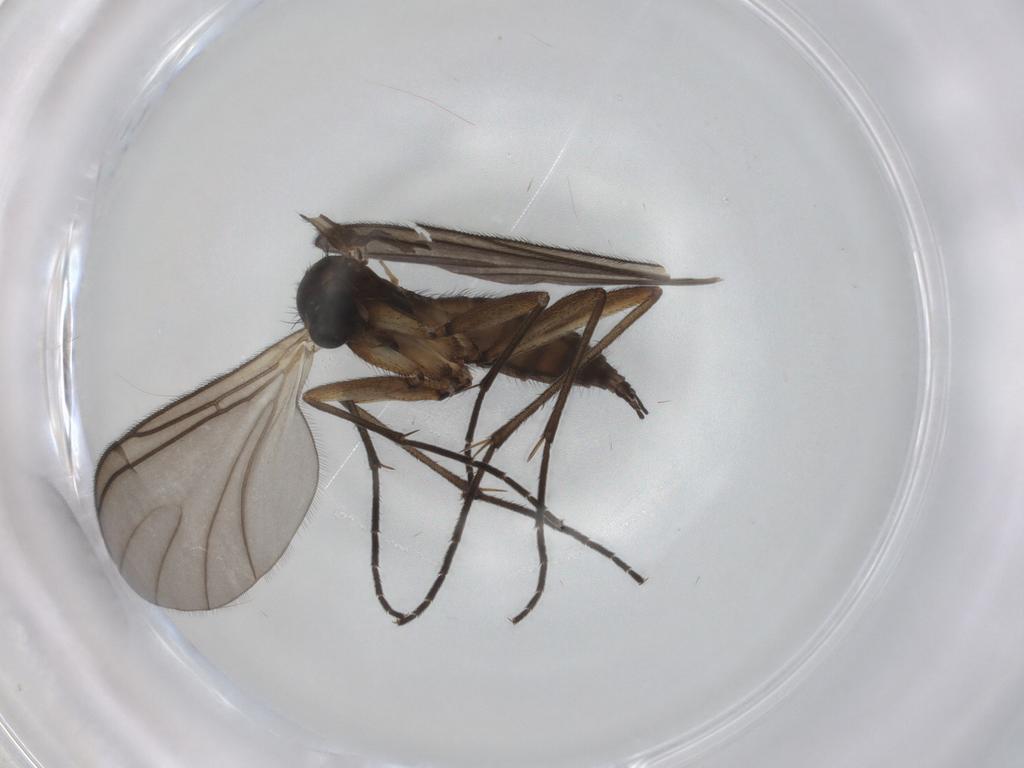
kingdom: Animalia
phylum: Arthropoda
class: Insecta
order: Diptera
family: Sciaridae
